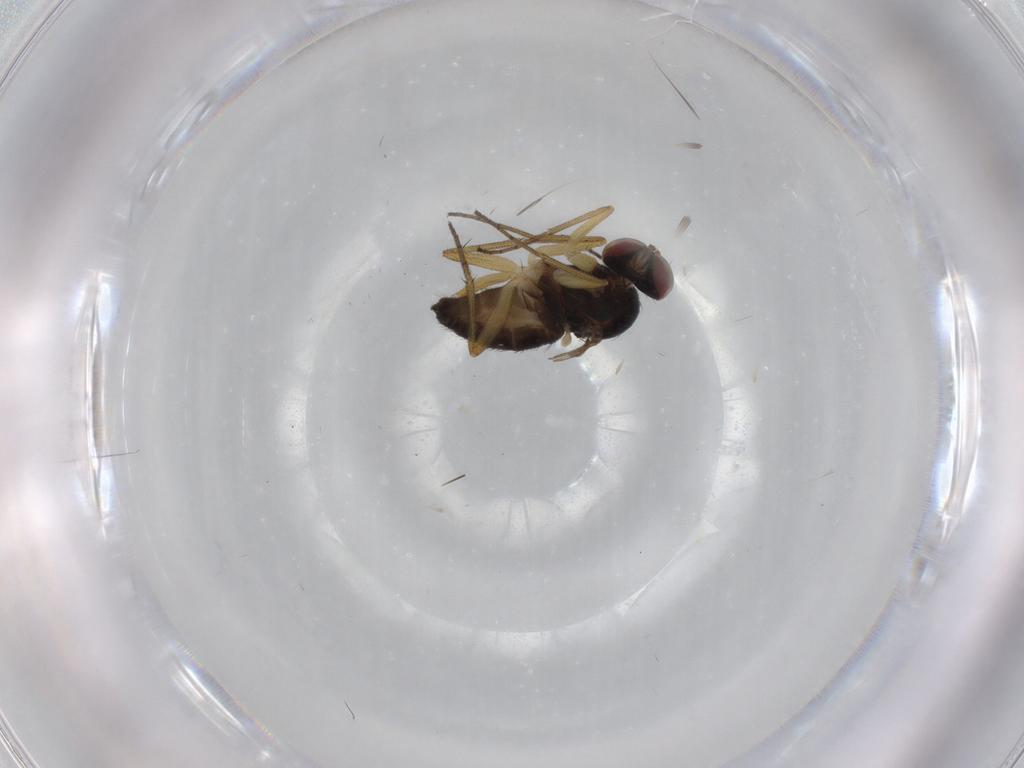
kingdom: Animalia
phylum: Arthropoda
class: Insecta
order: Diptera
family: Dolichopodidae
